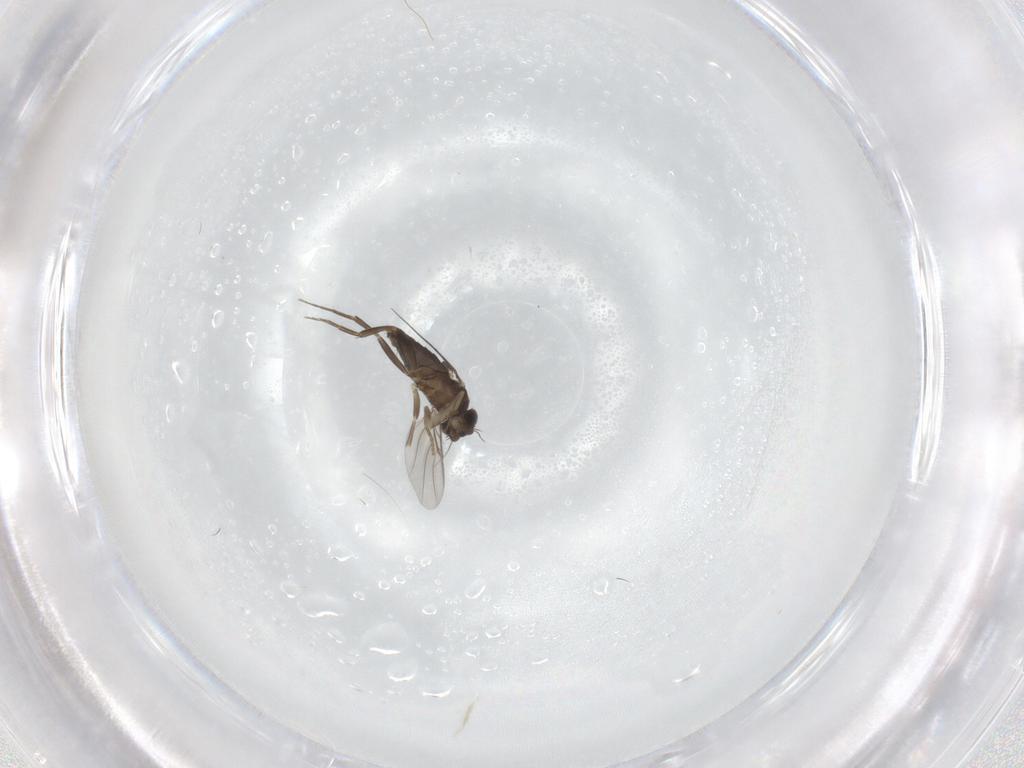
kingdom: Animalia
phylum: Arthropoda
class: Insecta
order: Diptera
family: Phoridae
